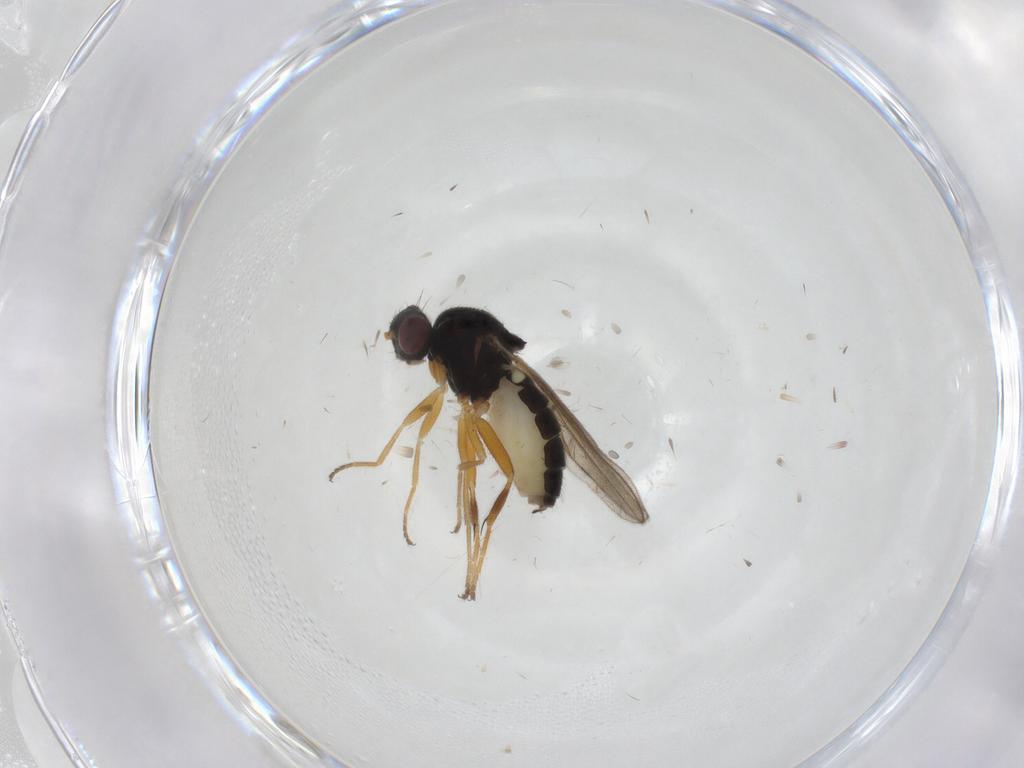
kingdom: Animalia
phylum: Arthropoda
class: Insecta
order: Diptera
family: Chloropidae
